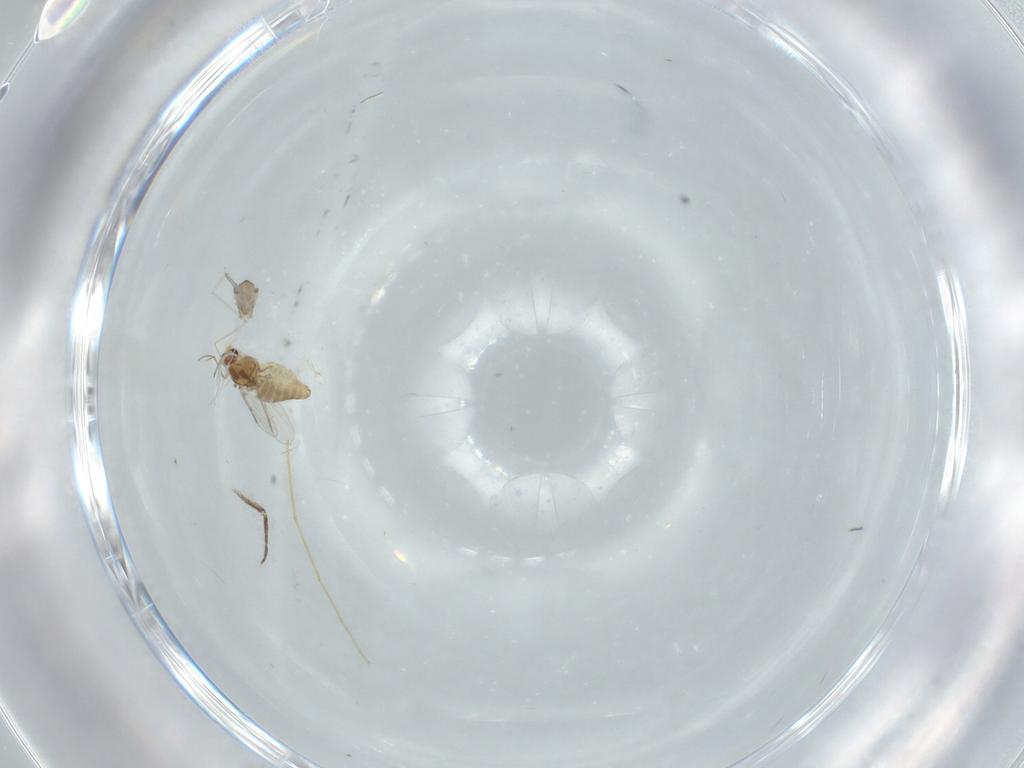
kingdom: Animalia
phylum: Arthropoda
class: Insecta
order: Diptera
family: Chironomidae
